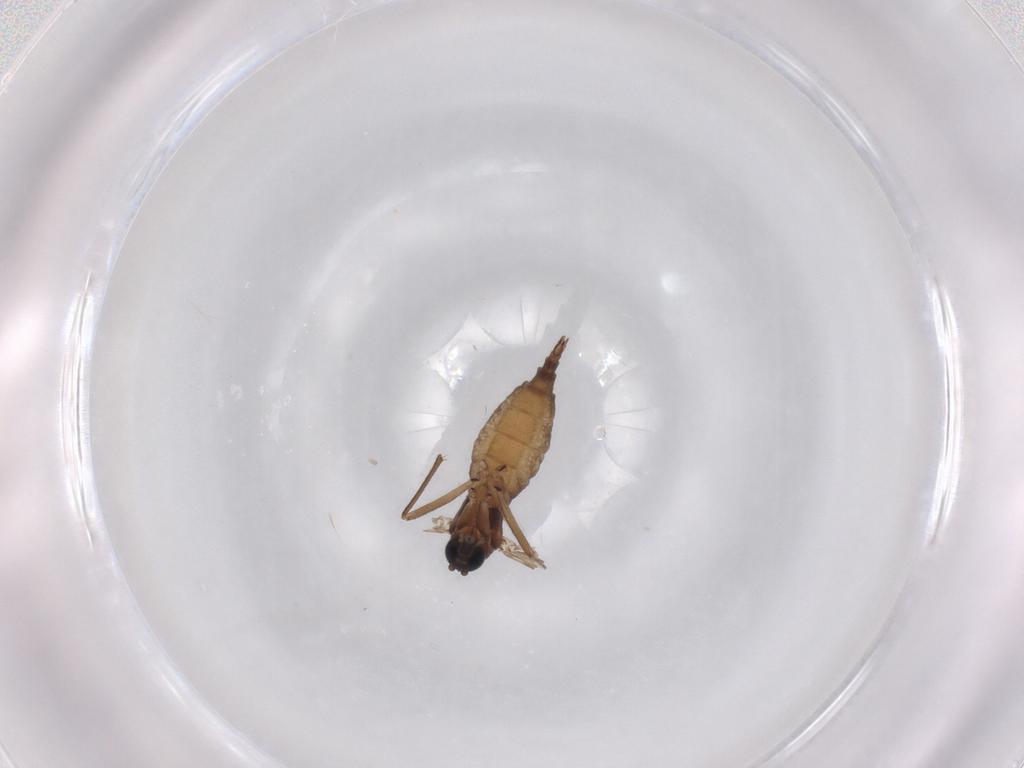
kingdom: Animalia
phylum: Arthropoda
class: Insecta
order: Diptera
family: Sciaridae
